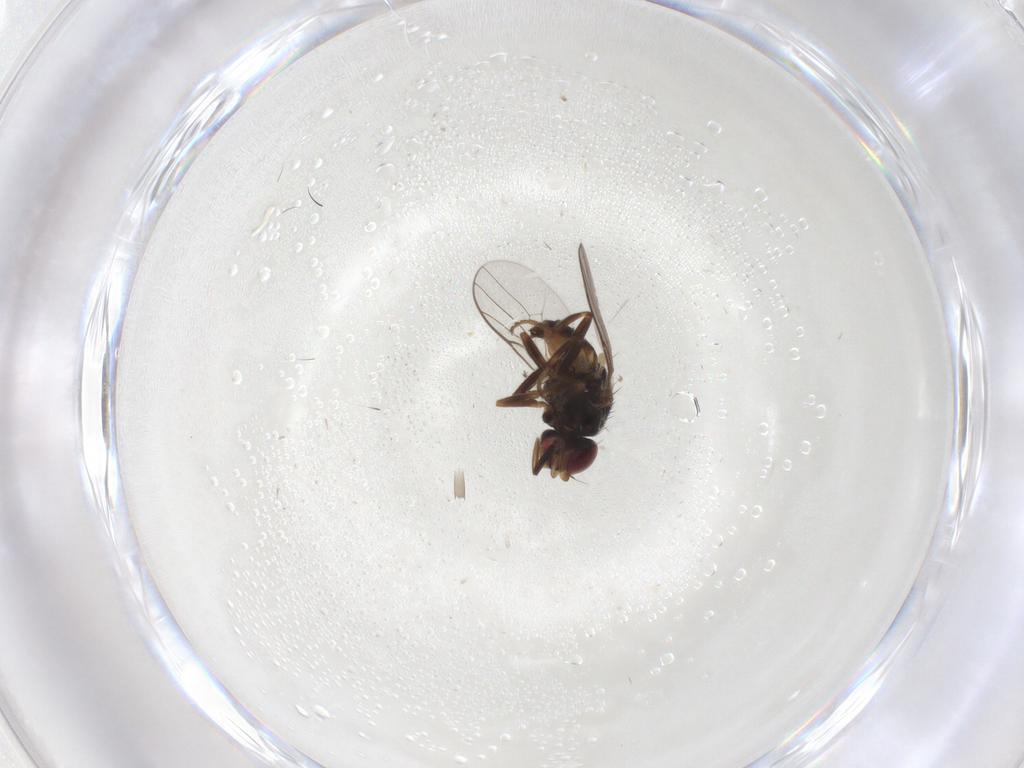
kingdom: Animalia
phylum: Arthropoda
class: Insecta
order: Diptera
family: Chloropidae
